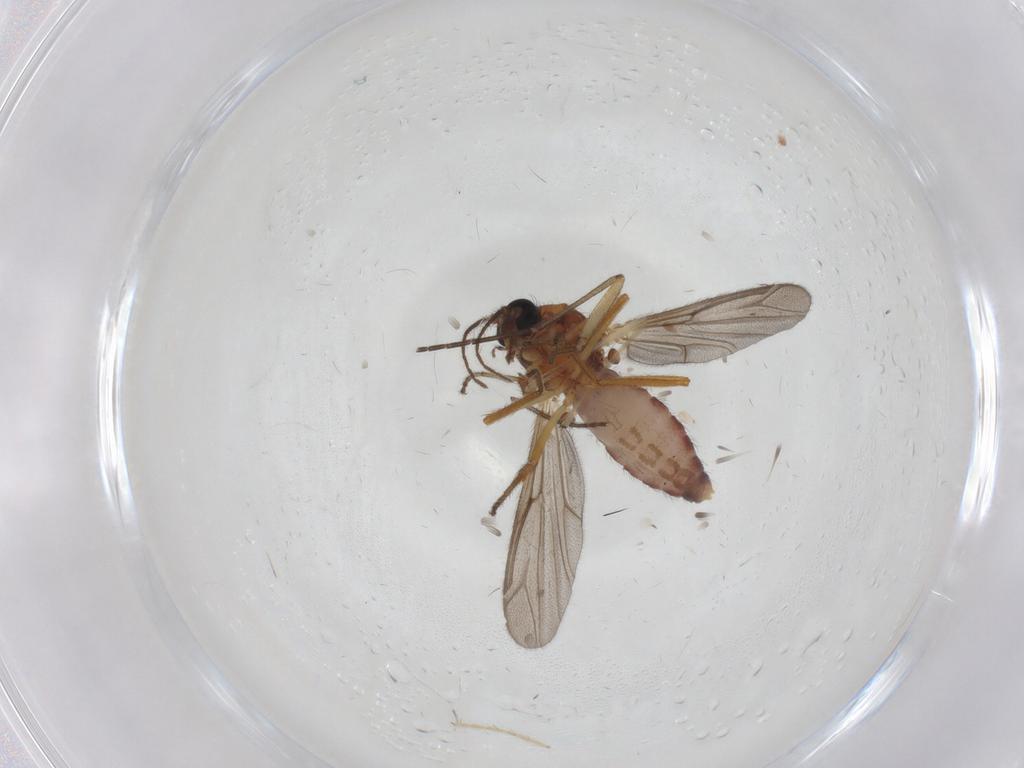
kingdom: Animalia
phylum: Arthropoda
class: Insecta
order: Diptera
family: Ceratopogonidae
